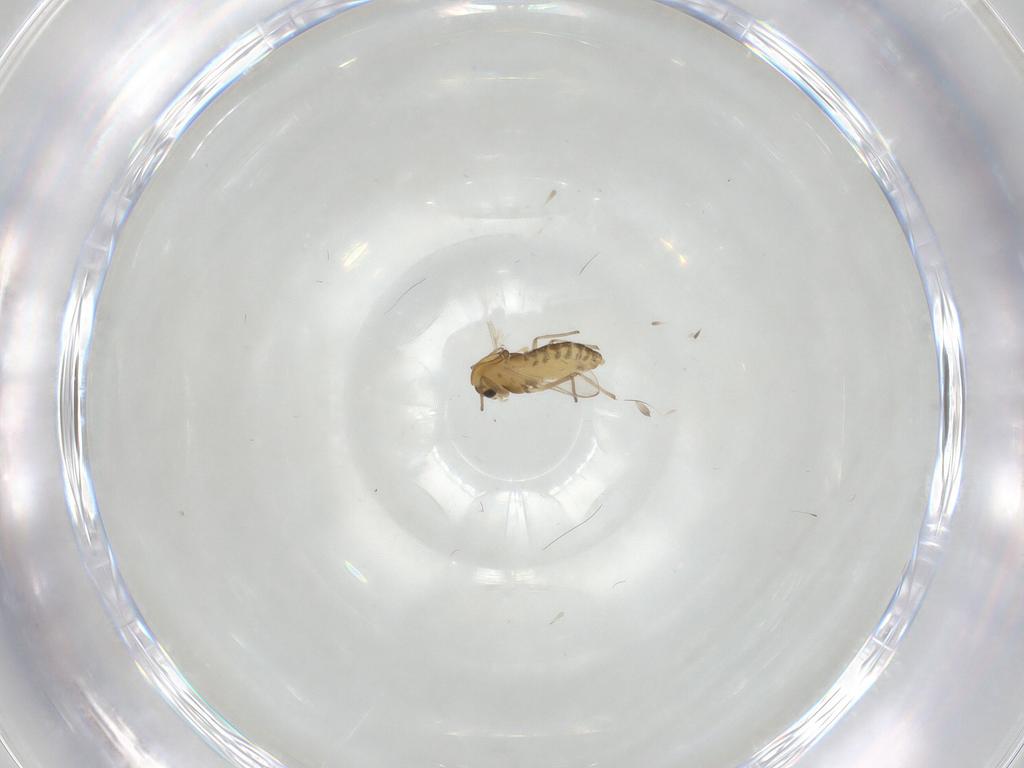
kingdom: Animalia
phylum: Arthropoda
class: Insecta
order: Diptera
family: Chironomidae
